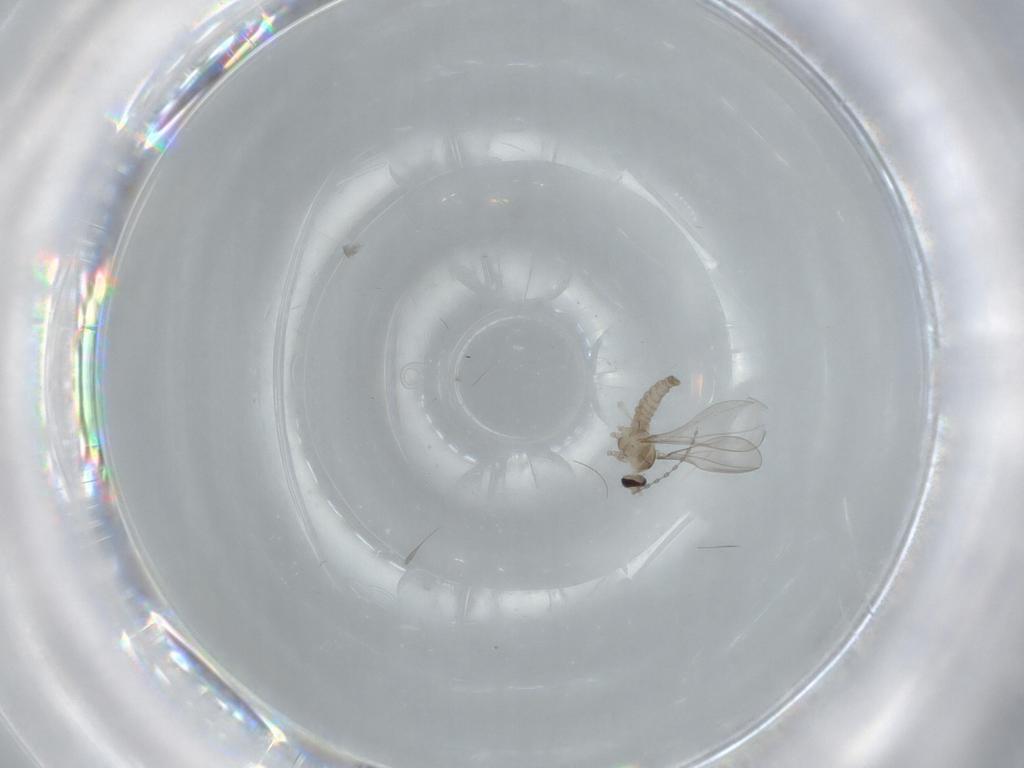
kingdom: Animalia
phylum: Arthropoda
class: Insecta
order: Diptera
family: Cecidomyiidae
